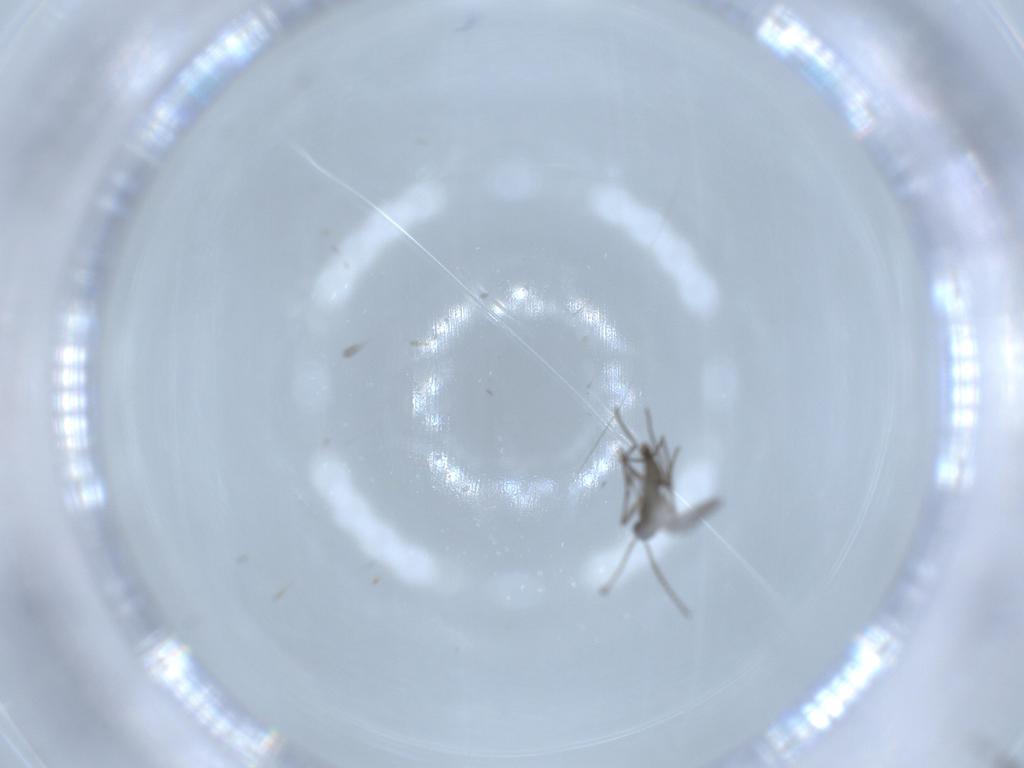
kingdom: Animalia
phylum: Arthropoda
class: Insecta
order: Diptera
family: Sciaridae
